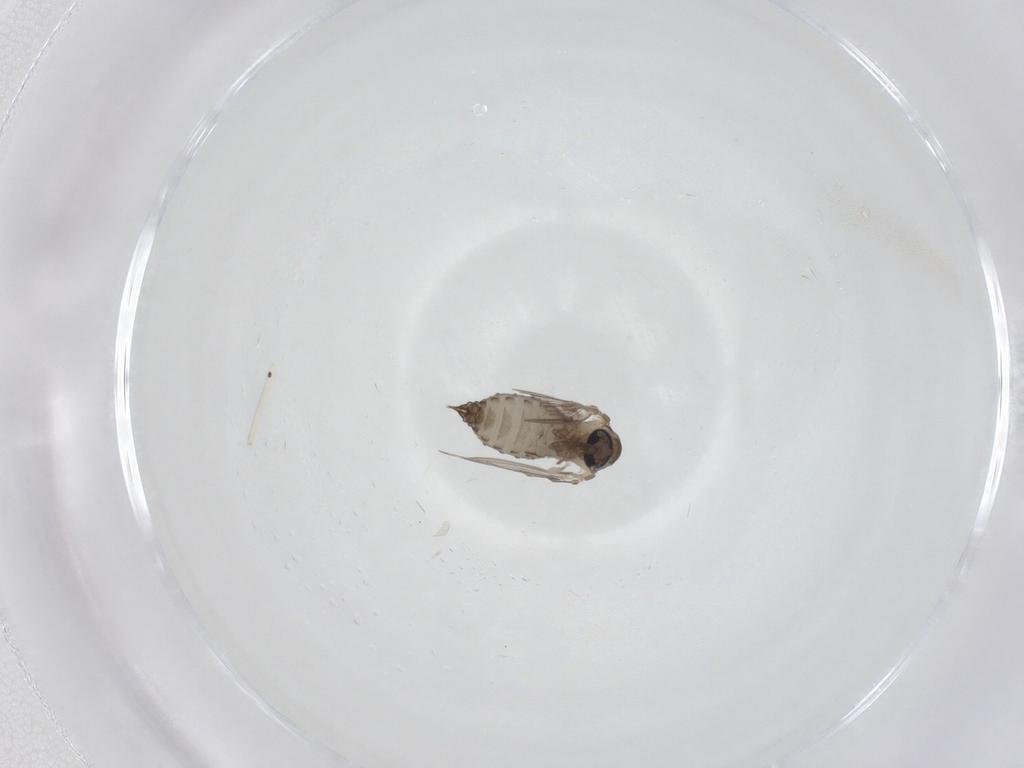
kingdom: Animalia
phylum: Arthropoda
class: Insecta
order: Diptera
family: Psychodidae
